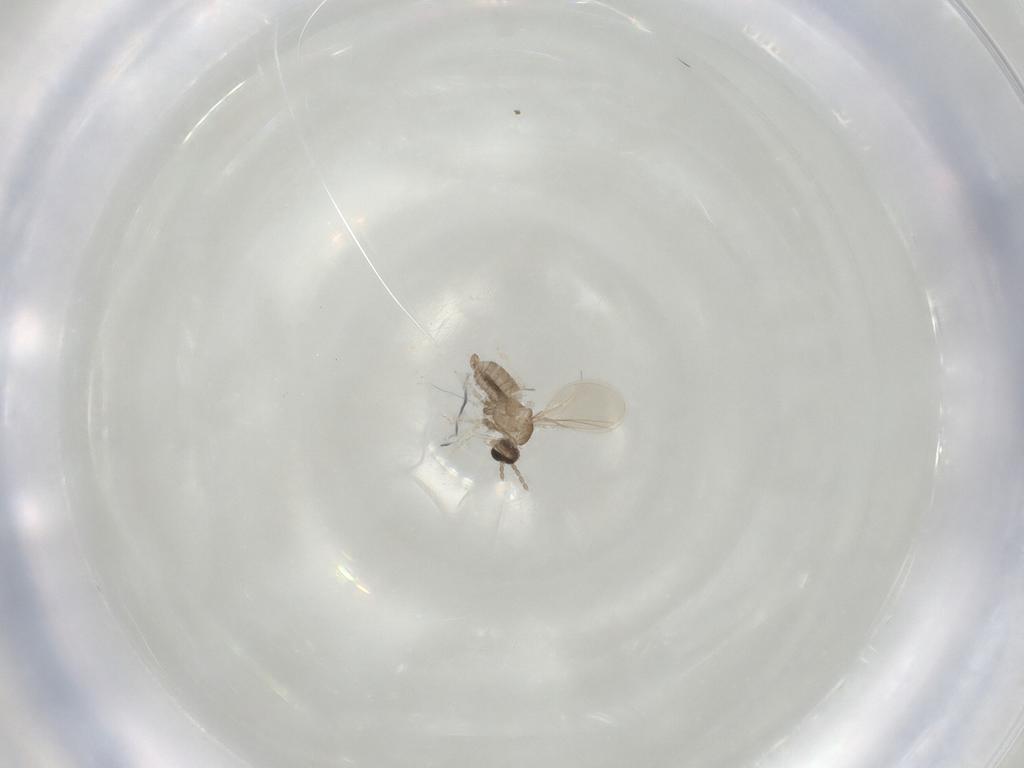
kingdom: Animalia
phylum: Arthropoda
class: Insecta
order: Diptera
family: Cecidomyiidae
